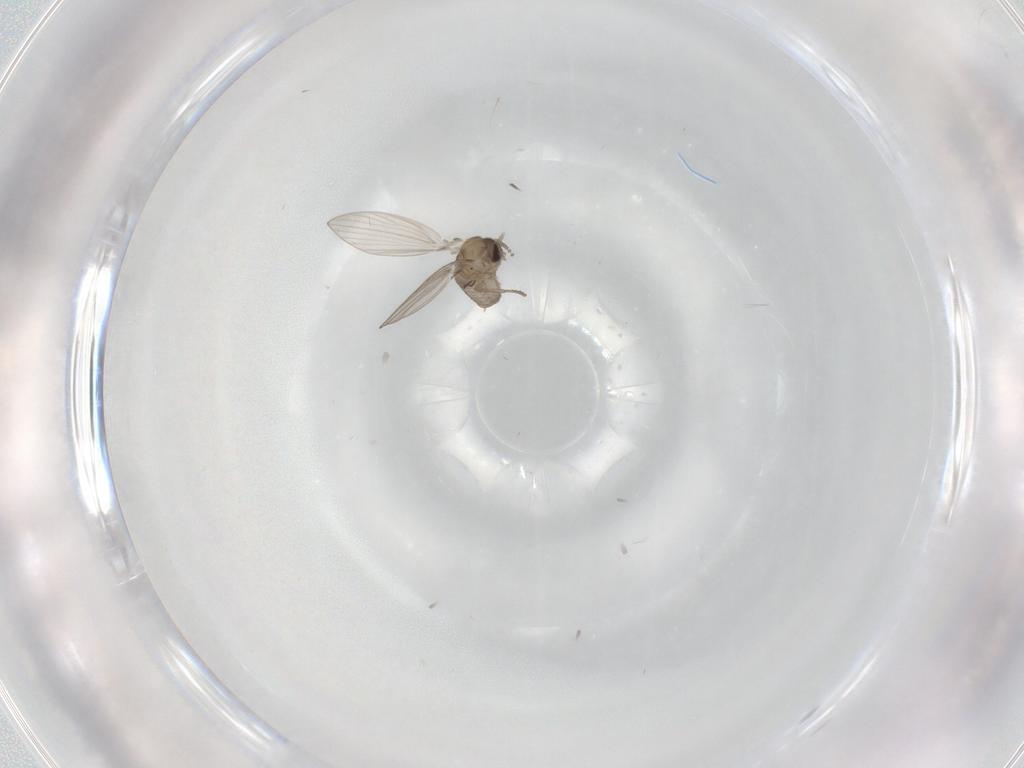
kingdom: Animalia
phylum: Arthropoda
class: Insecta
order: Diptera
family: Psychodidae
